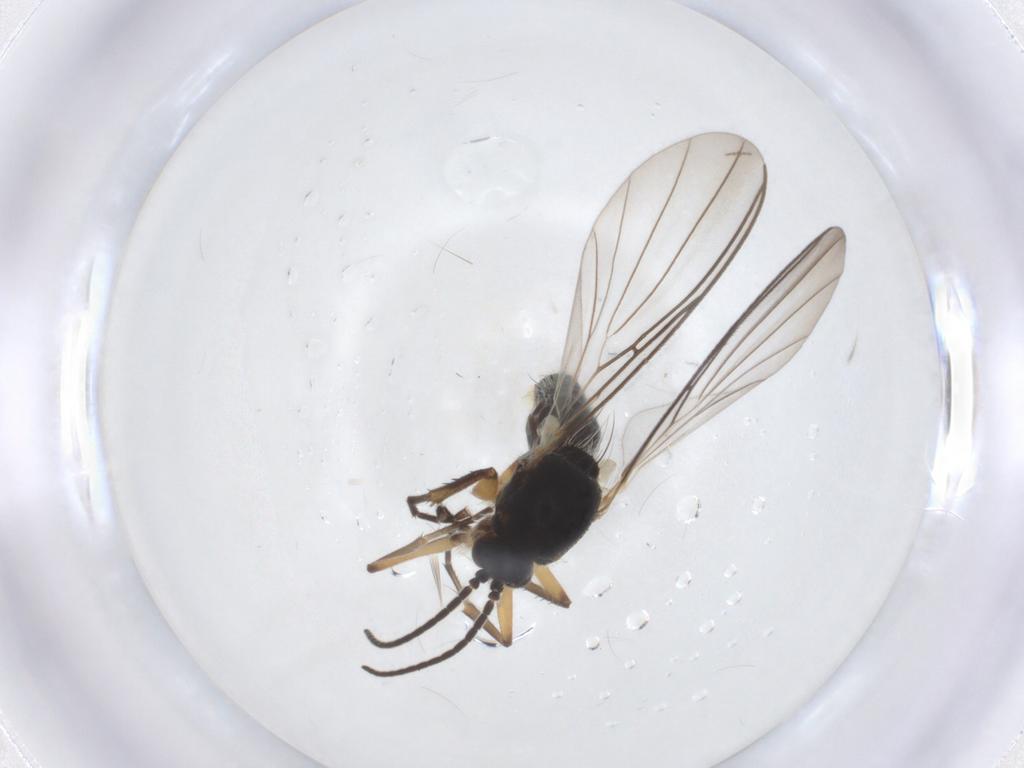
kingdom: Animalia
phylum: Arthropoda
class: Insecta
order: Diptera
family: Mycetophilidae
